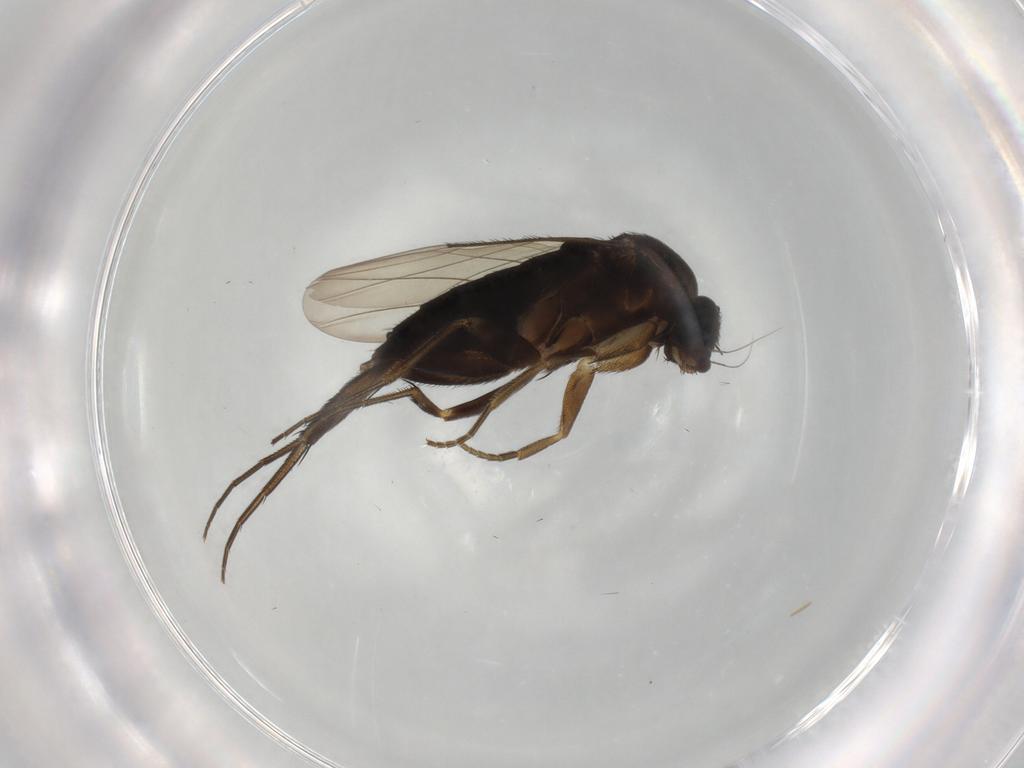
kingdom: Animalia
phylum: Arthropoda
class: Insecta
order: Diptera
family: Phoridae
